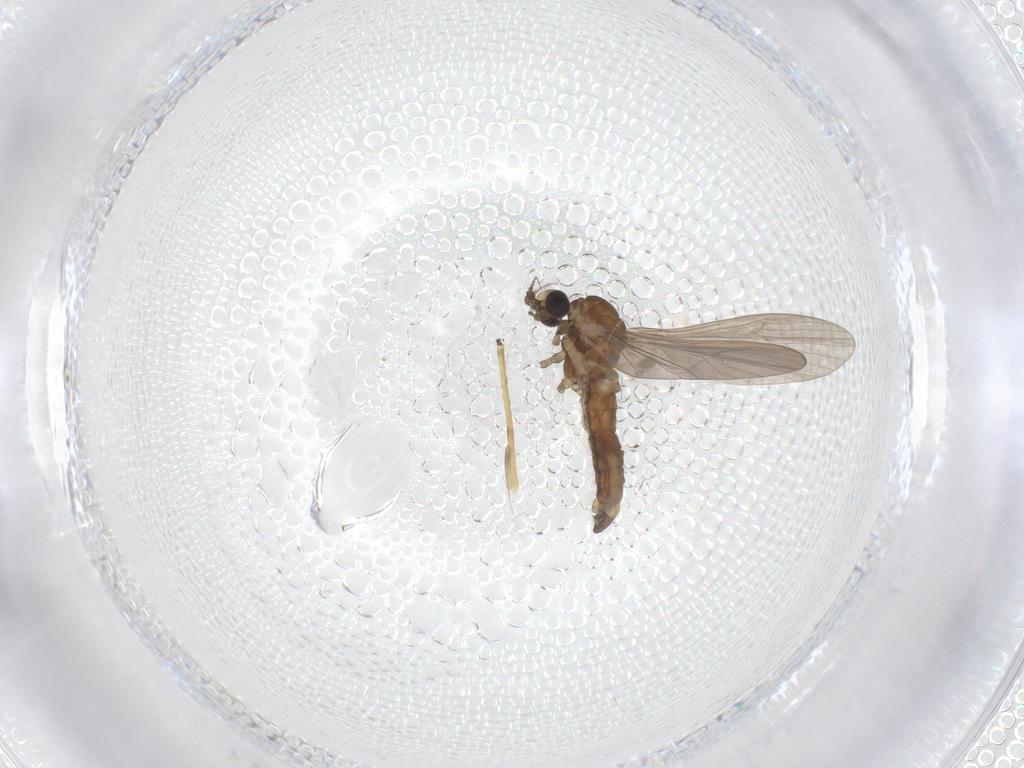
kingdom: Animalia
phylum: Arthropoda
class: Insecta
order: Diptera
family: Limoniidae
